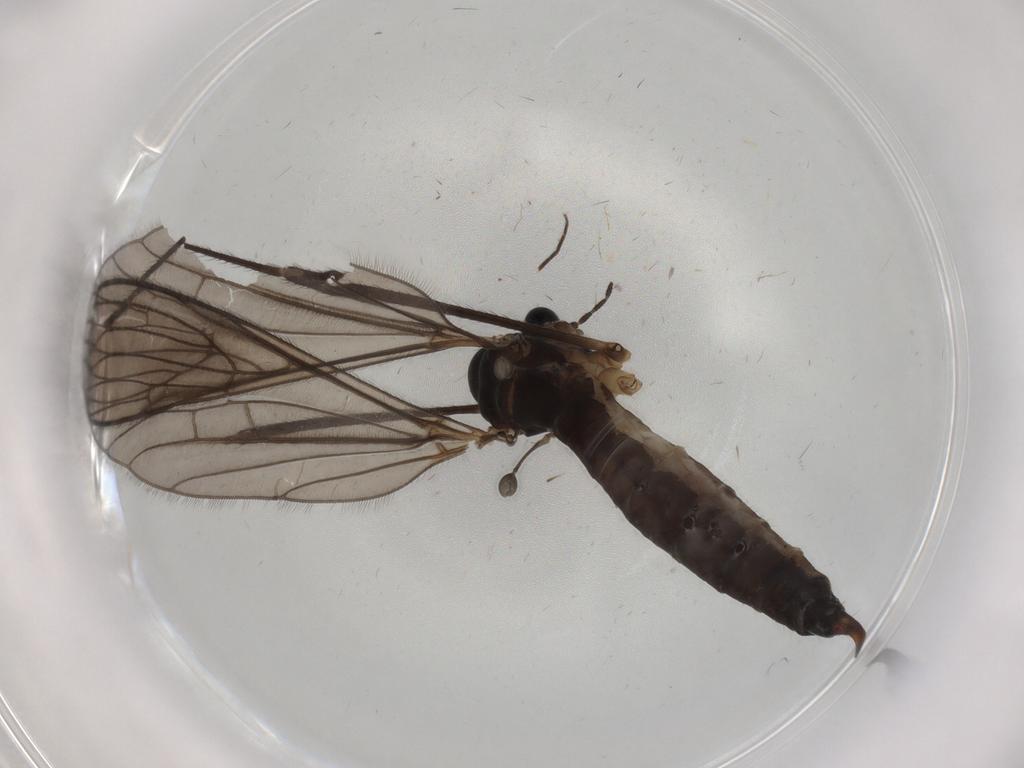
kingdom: Animalia
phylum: Arthropoda
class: Insecta
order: Diptera
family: Limoniidae
